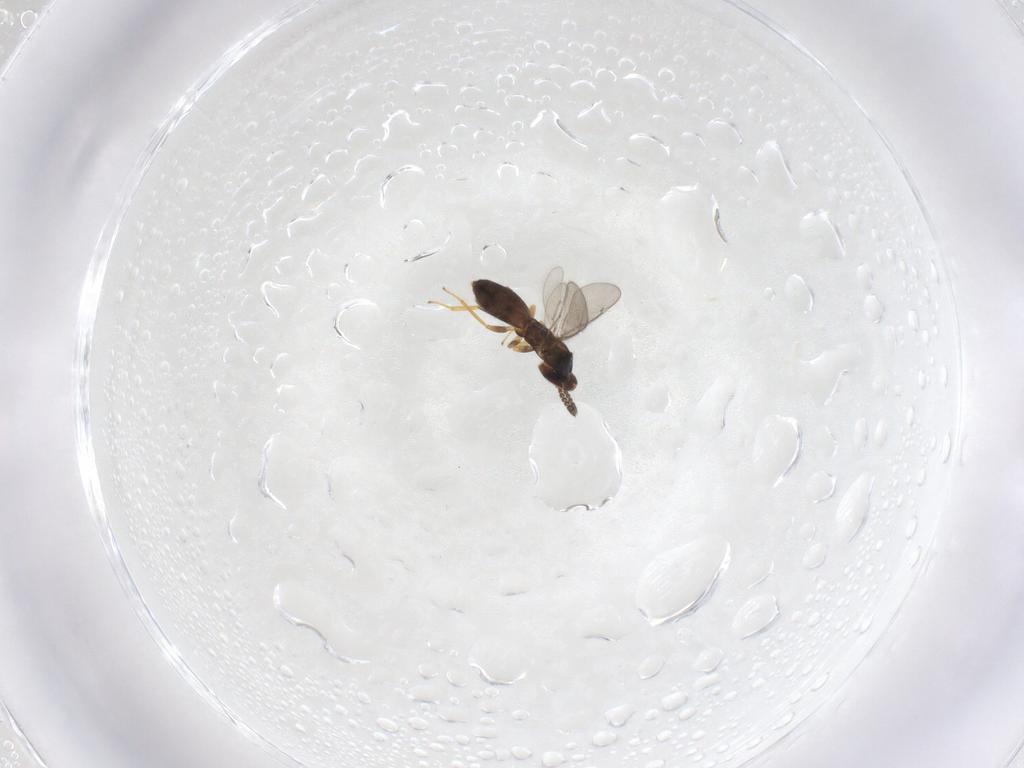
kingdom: Animalia
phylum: Arthropoda
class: Insecta
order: Hymenoptera
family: Eulophidae
